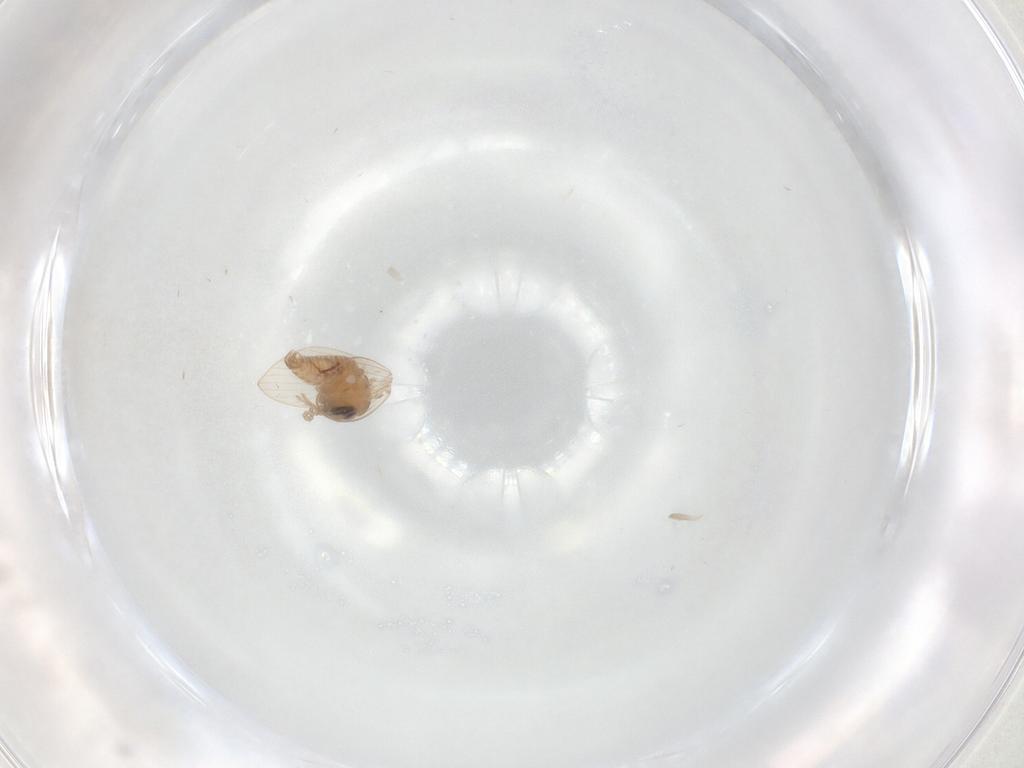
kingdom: Animalia
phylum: Arthropoda
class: Insecta
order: Diptera
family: Psychodidae
